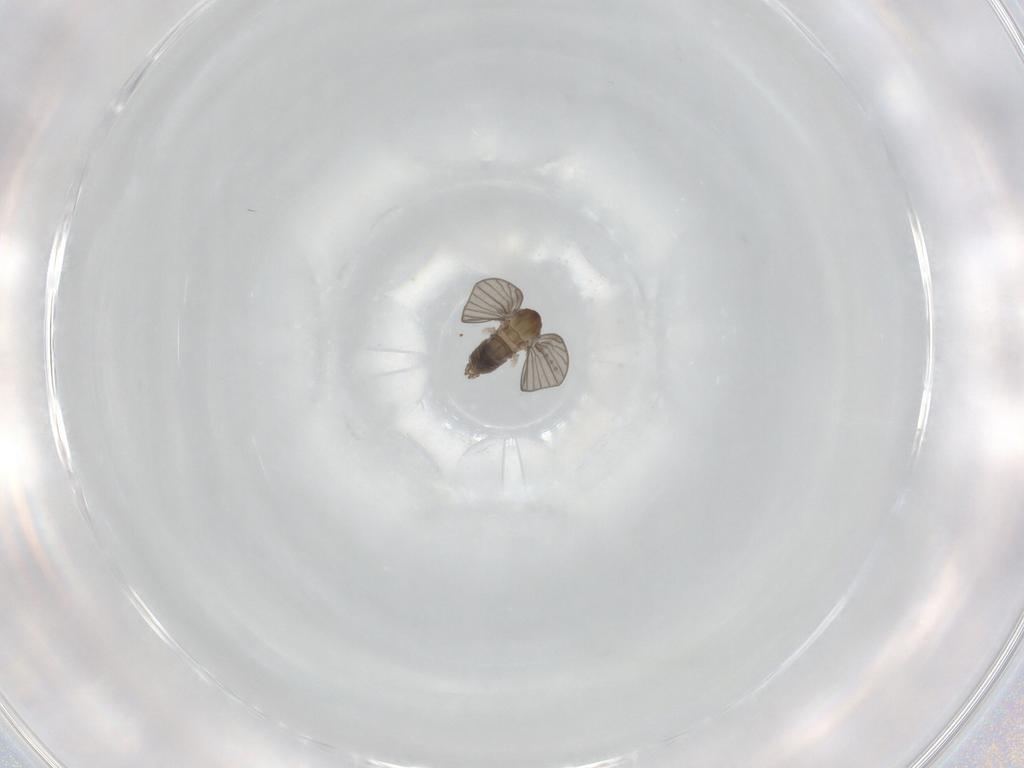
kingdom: Animalia
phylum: Arthropoda
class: Insecta
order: Diptera
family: Psychodidae
